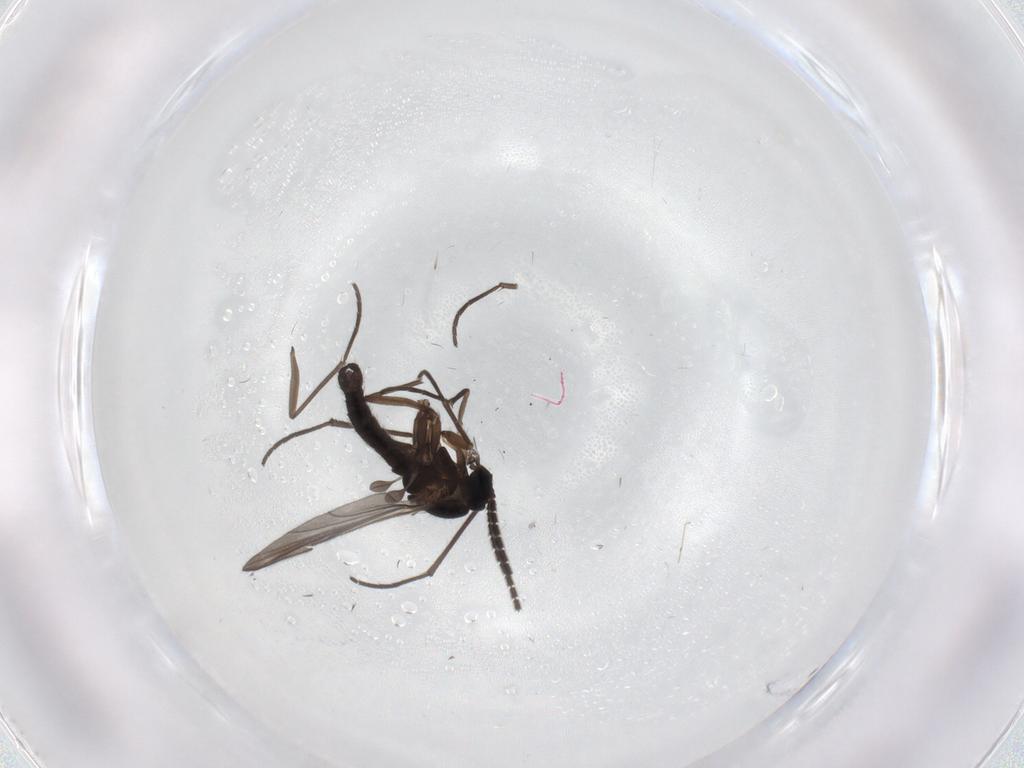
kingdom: Animalia
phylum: Arthropoda
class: Insecta
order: Diptera
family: Sciaridae
